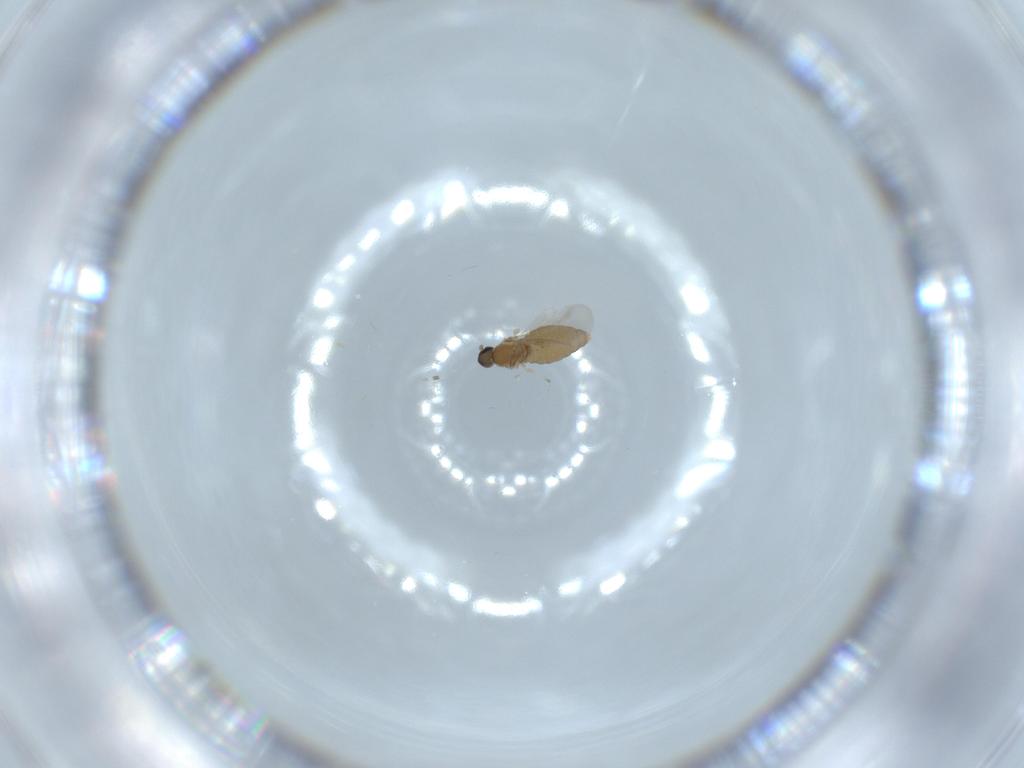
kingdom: Animalia
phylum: Arthropoda
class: Insecta
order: Diptera
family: Cecidomyiidae
